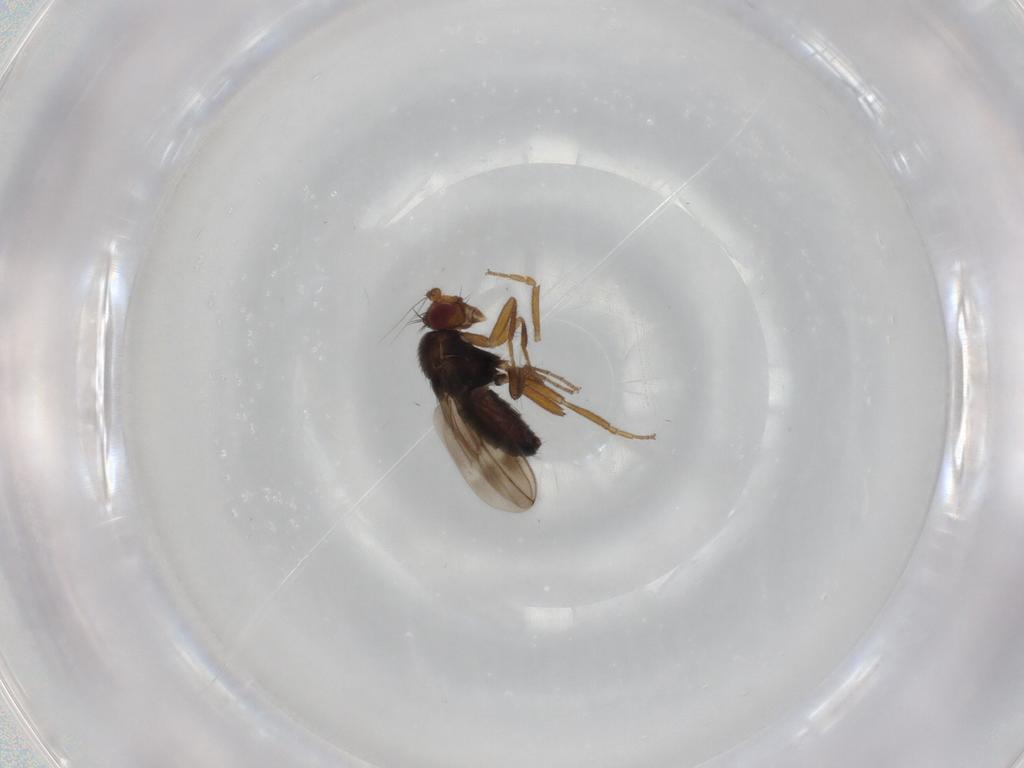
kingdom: Animalia
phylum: Arthropoda
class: Insecta
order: Diptera
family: Sphaeroceridae
